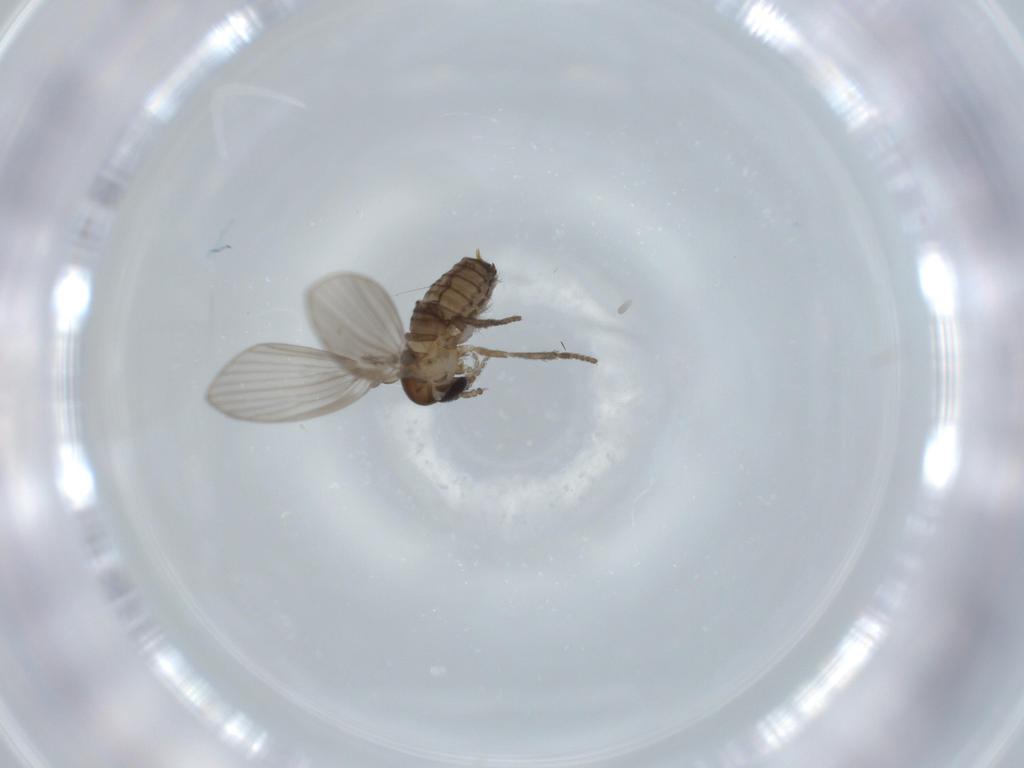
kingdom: Animalia
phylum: Arthropoda
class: Insecta
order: Diptera
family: Psychodidae
